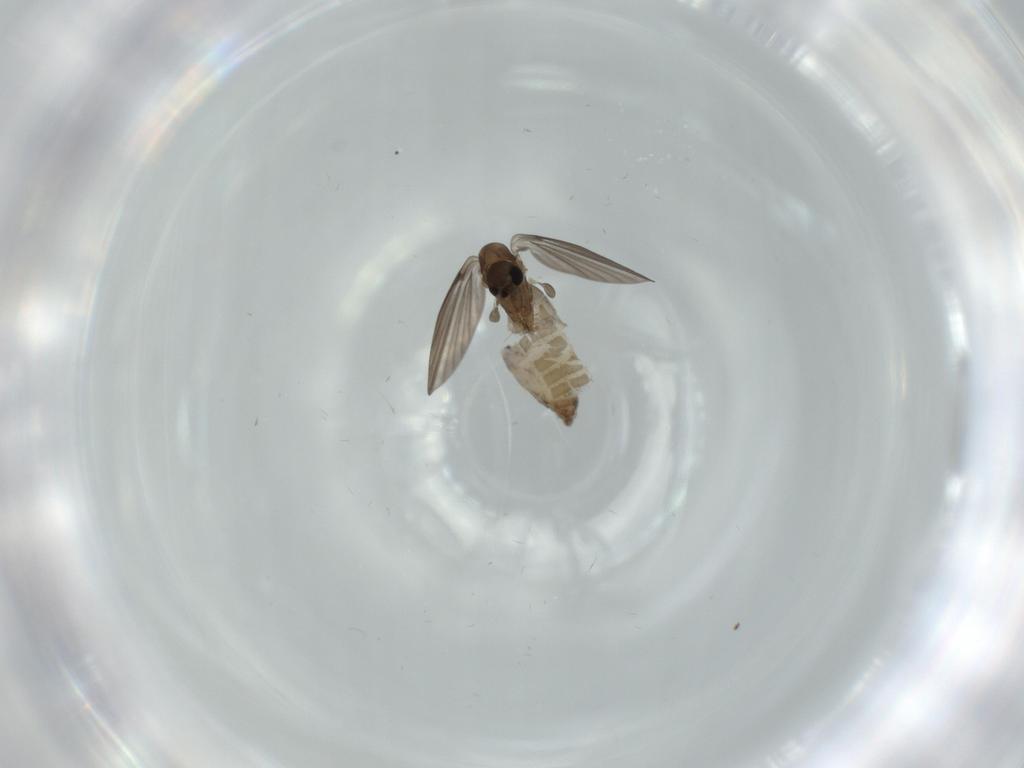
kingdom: Animalia
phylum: Arthropoda
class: Insecta
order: Diptera
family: Psychodidae
